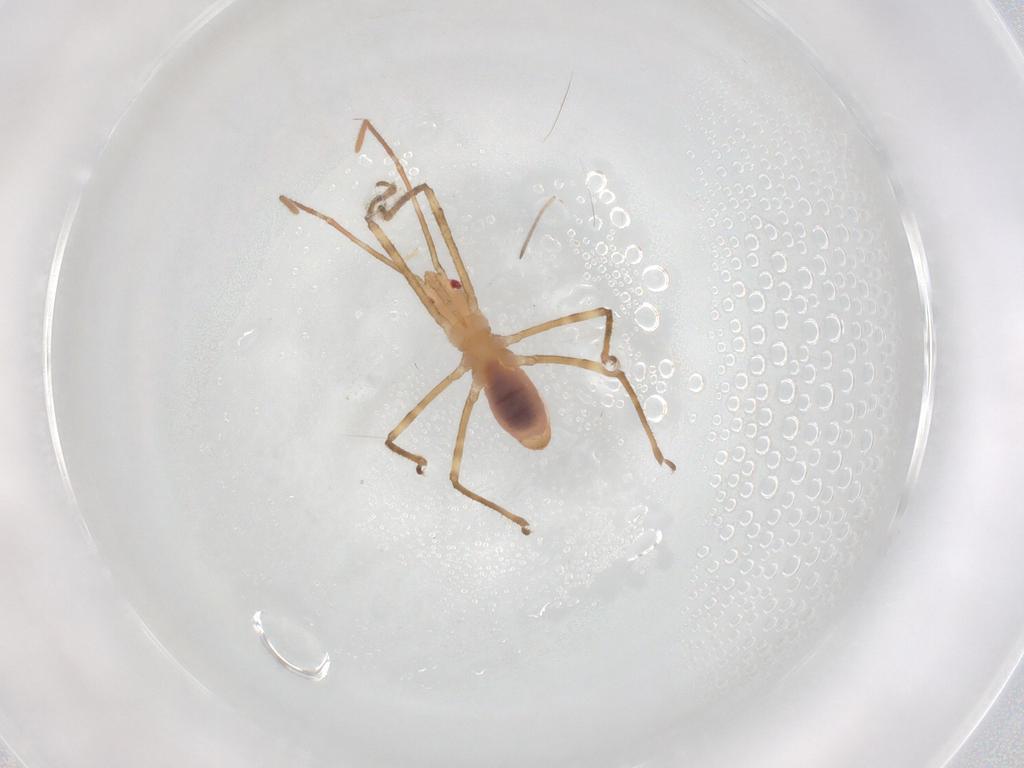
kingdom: Animalia
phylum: Arthropoda
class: Insecta
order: Hemiptera
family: Reduviidae
